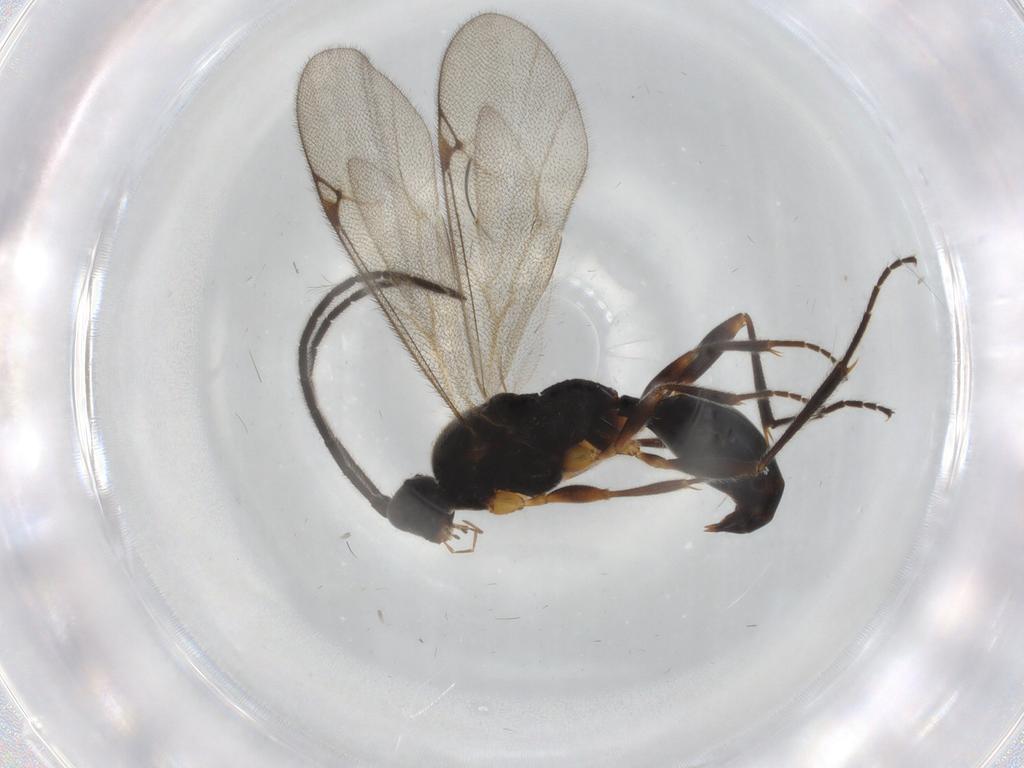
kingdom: Animalia
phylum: Arthropoda
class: Insecta
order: Hymenoptera
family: Proctotrupidae
